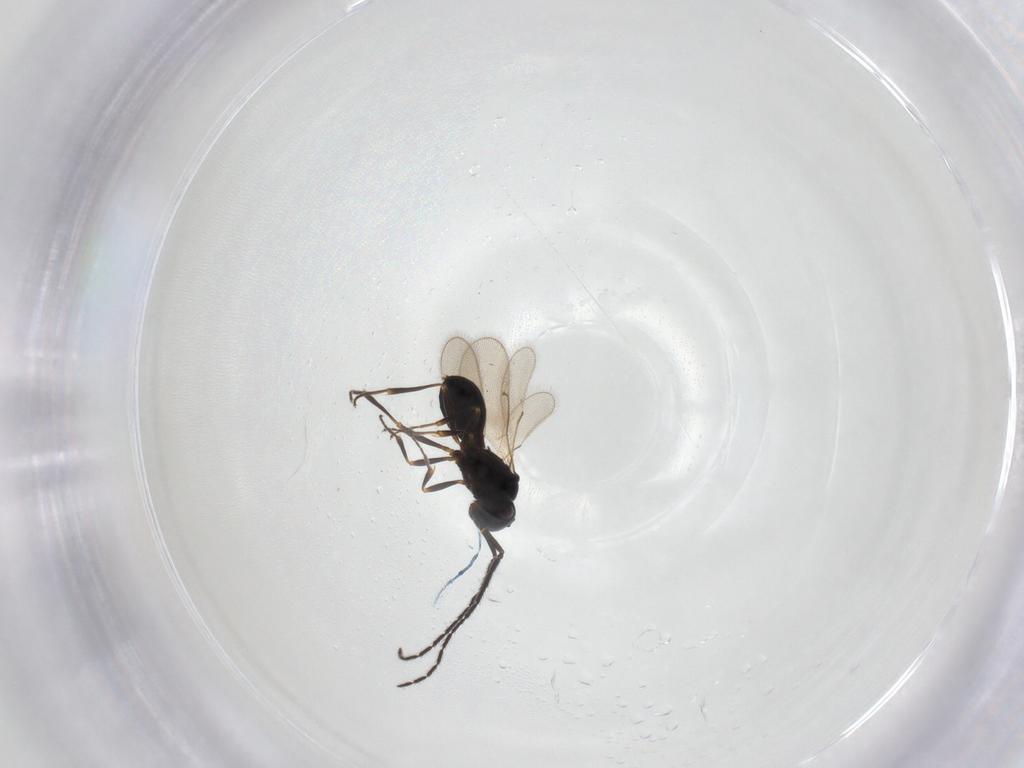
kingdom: Animalia
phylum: Arthropoda
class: Insecta
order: Hymenoptera
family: Scelionidae
